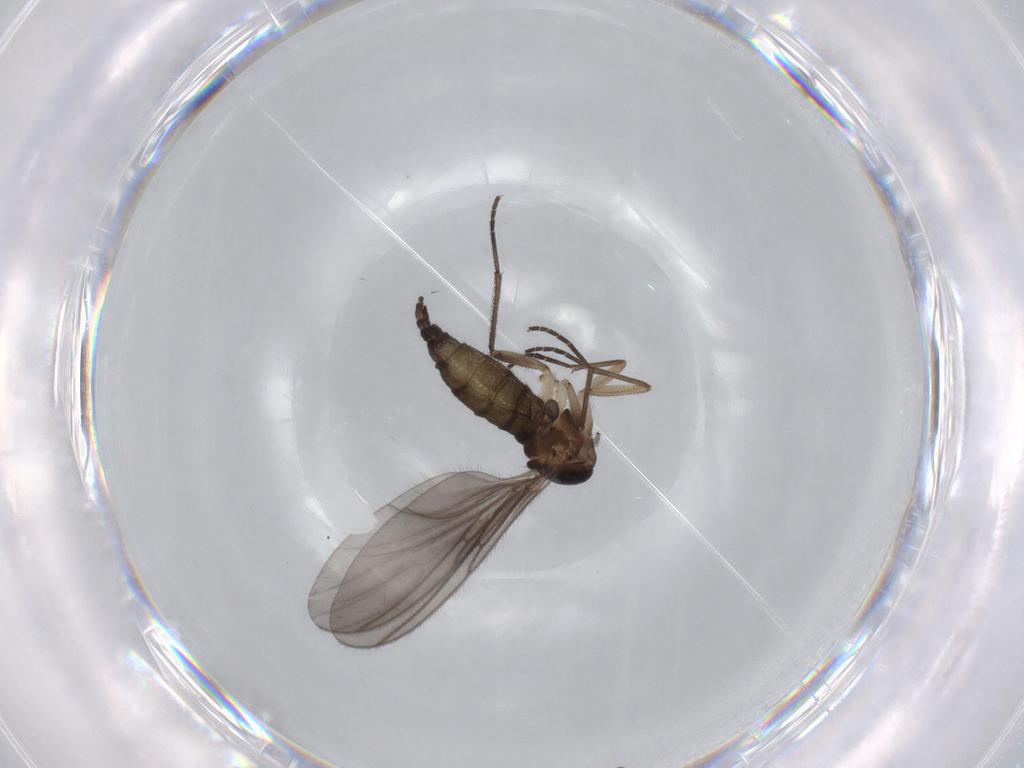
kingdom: Animalia
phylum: Arthropoda
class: Insecta
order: Diptera
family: Sciaridae
